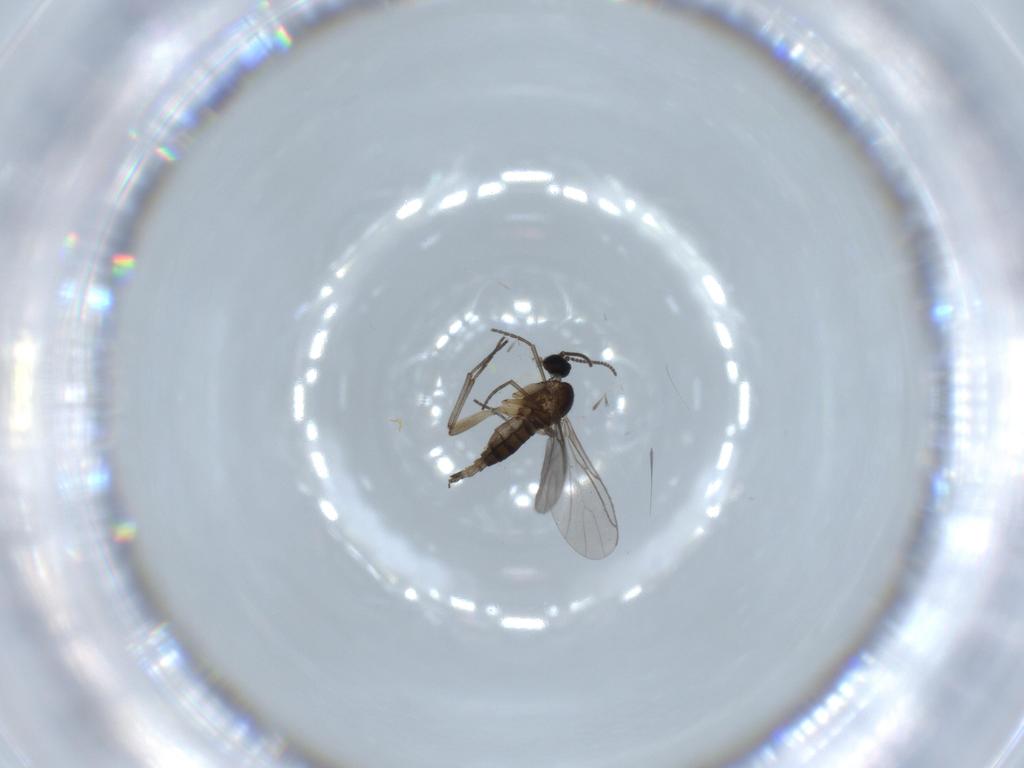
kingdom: Animalia
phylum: Arthropoda
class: Insecta
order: Diptera
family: Sciaridae
